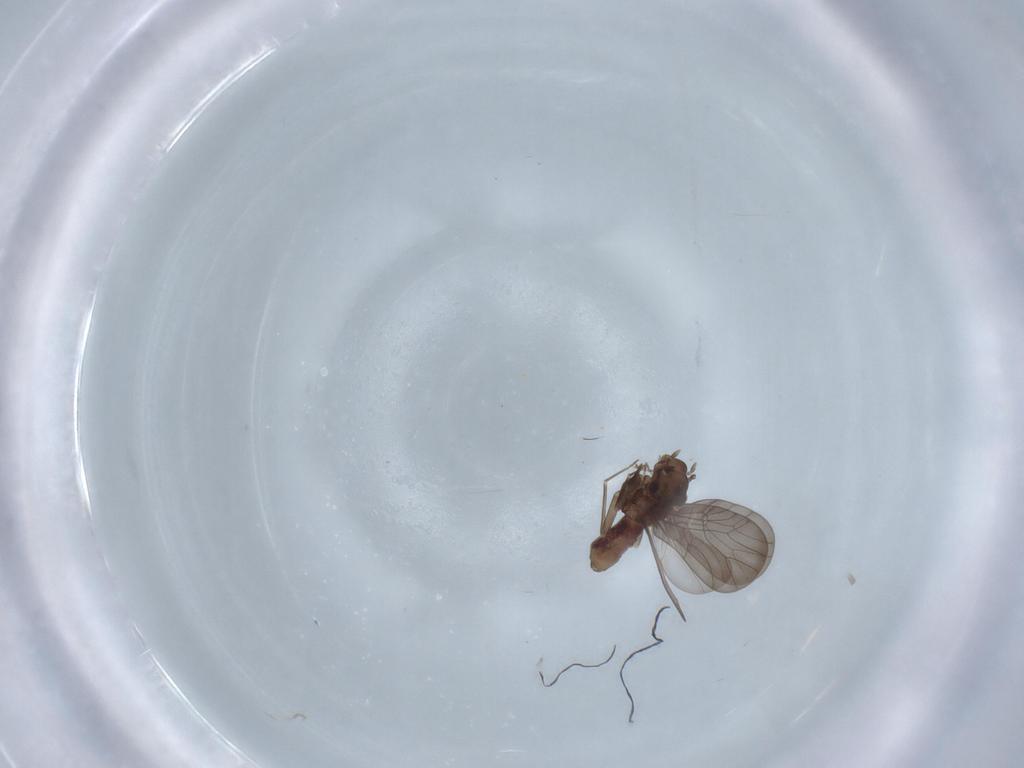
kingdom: Animalia
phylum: Arthropoda
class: Insecta
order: Psocodea
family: Lepidopsocidae
